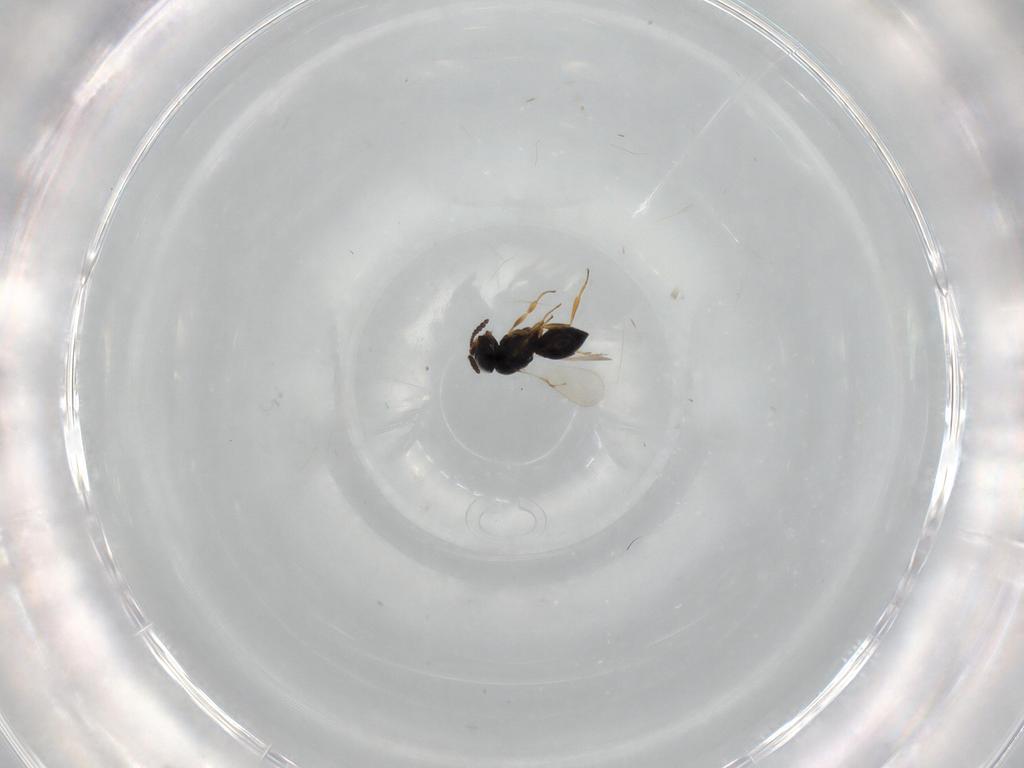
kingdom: Animalia
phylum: Arthropoda
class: Insecta
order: Hymenoptera
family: Scelionidae
